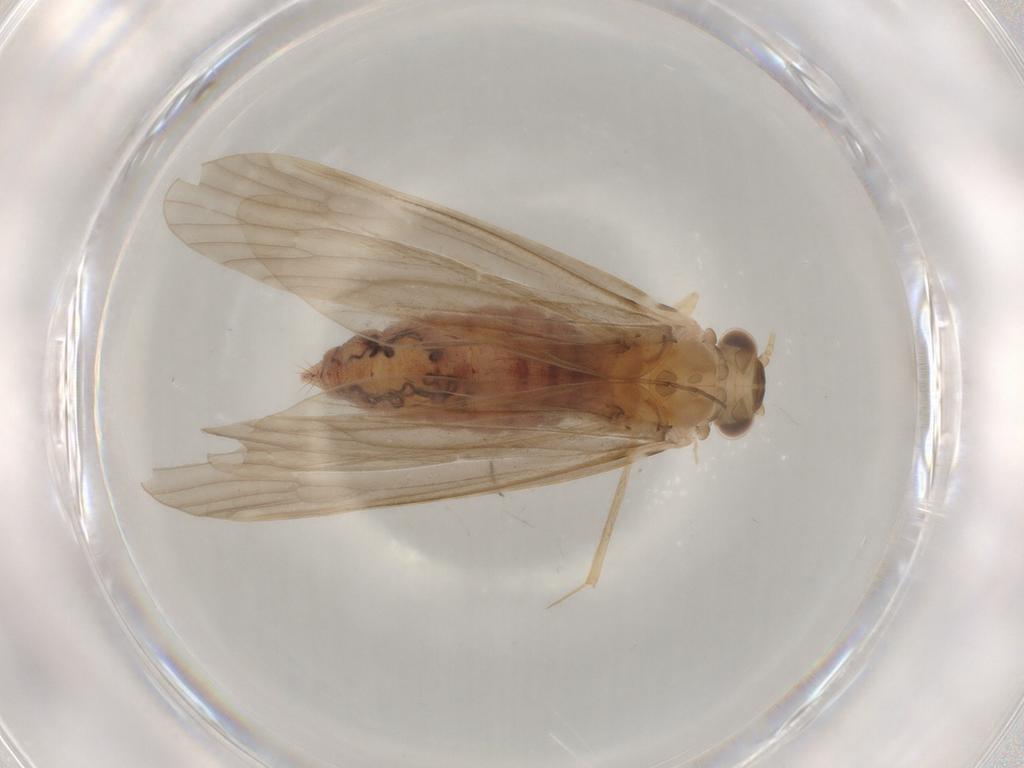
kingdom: Animalia
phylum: Arthropoda
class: Insecta
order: Trichoptera
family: Ecnomidae
